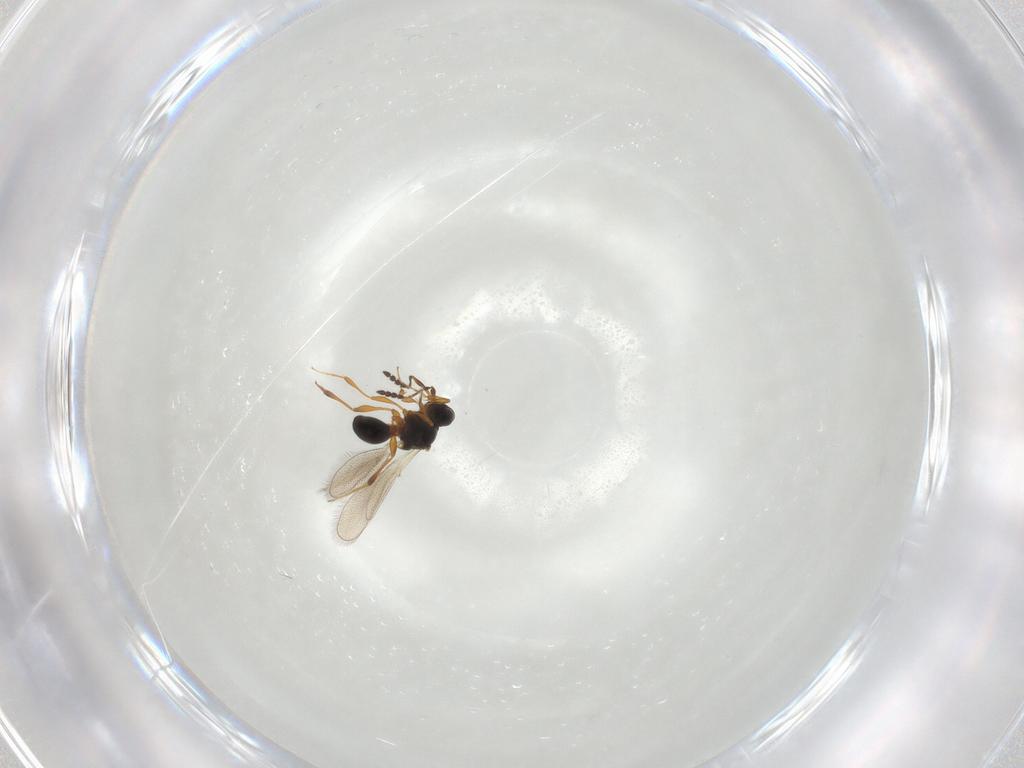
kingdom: Animalia
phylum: Arthropoda
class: Insecta
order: Hymenoptera
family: Platygastridae
